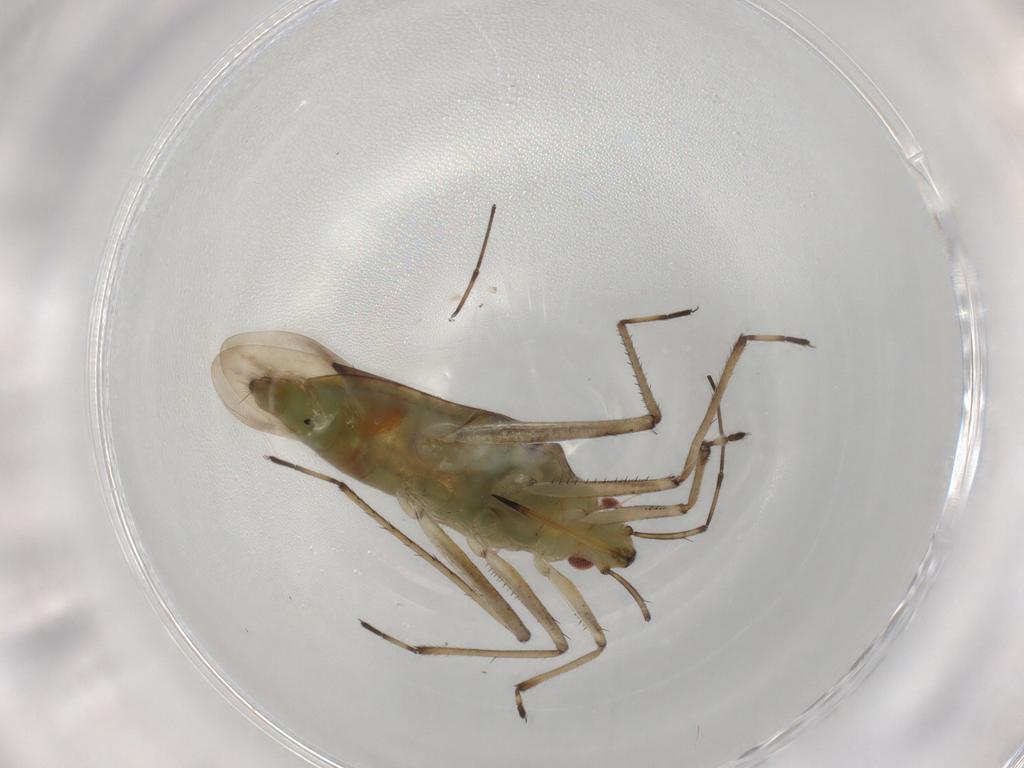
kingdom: Animalia
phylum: Arthropoda
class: Insecta
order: Hemiptera
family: Mesoveliidae
